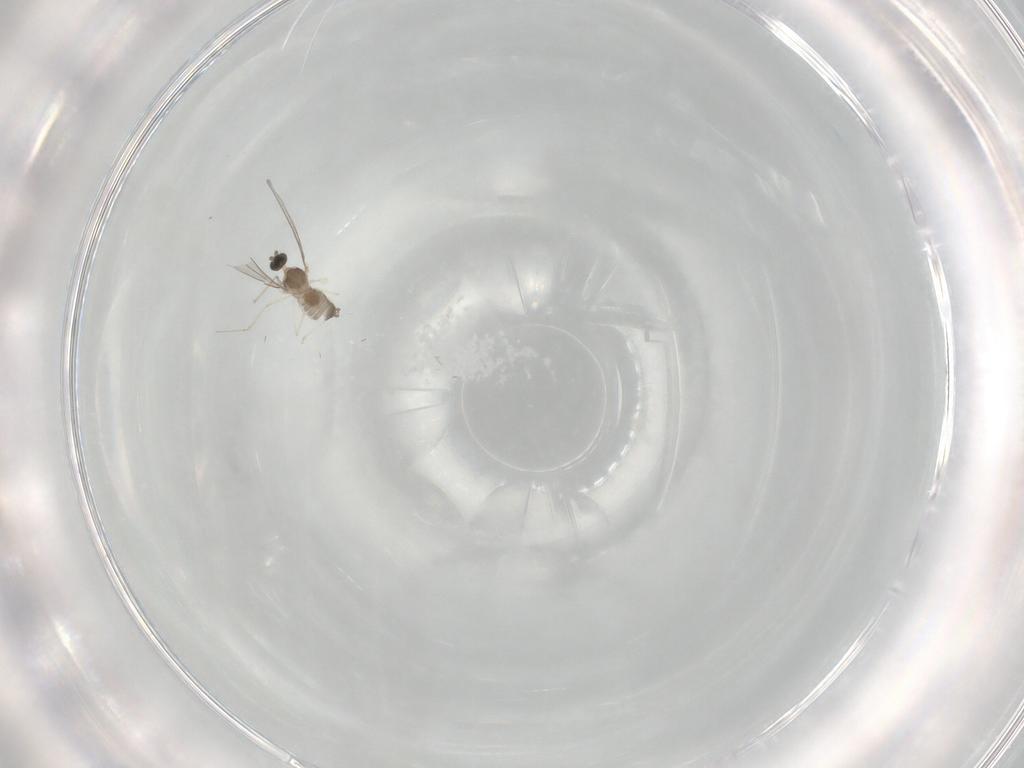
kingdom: Animalia
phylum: Arthropoda
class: Insecta
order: Diptera
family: Cecidomyiidae
